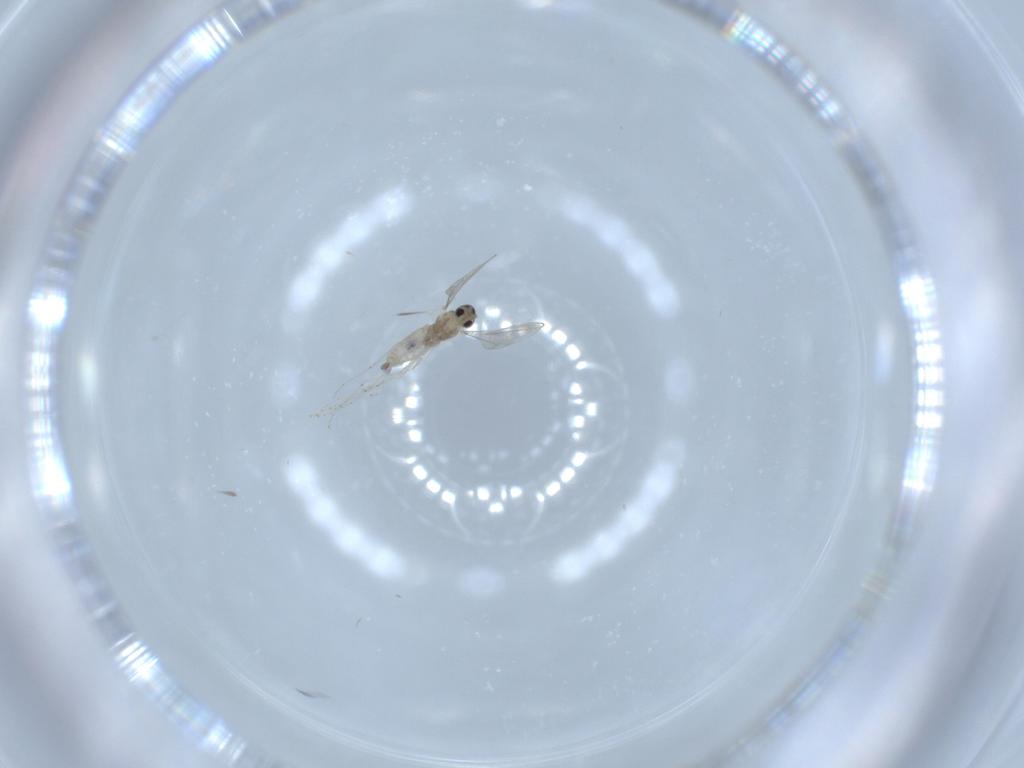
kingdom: Animalia
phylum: Arthropoda
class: Insecta
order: Diptera
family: Cecidomyiidae
